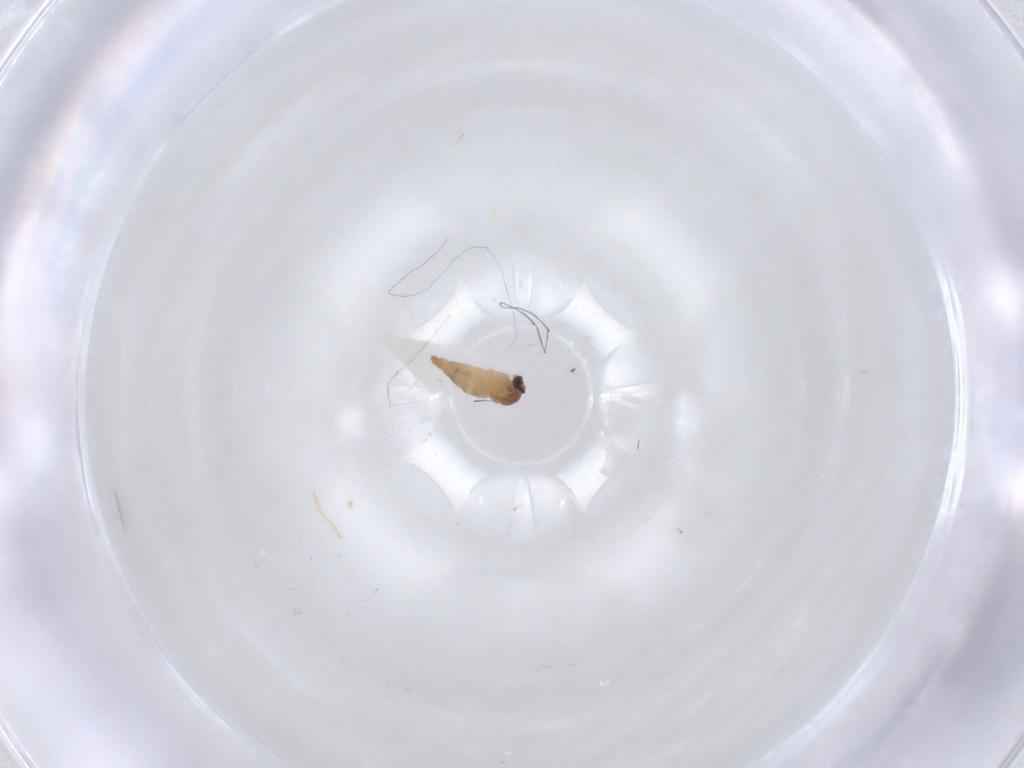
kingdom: Animalia
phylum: Arthropoda
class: Insecta
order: Diptera
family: Cecidomyiidae
